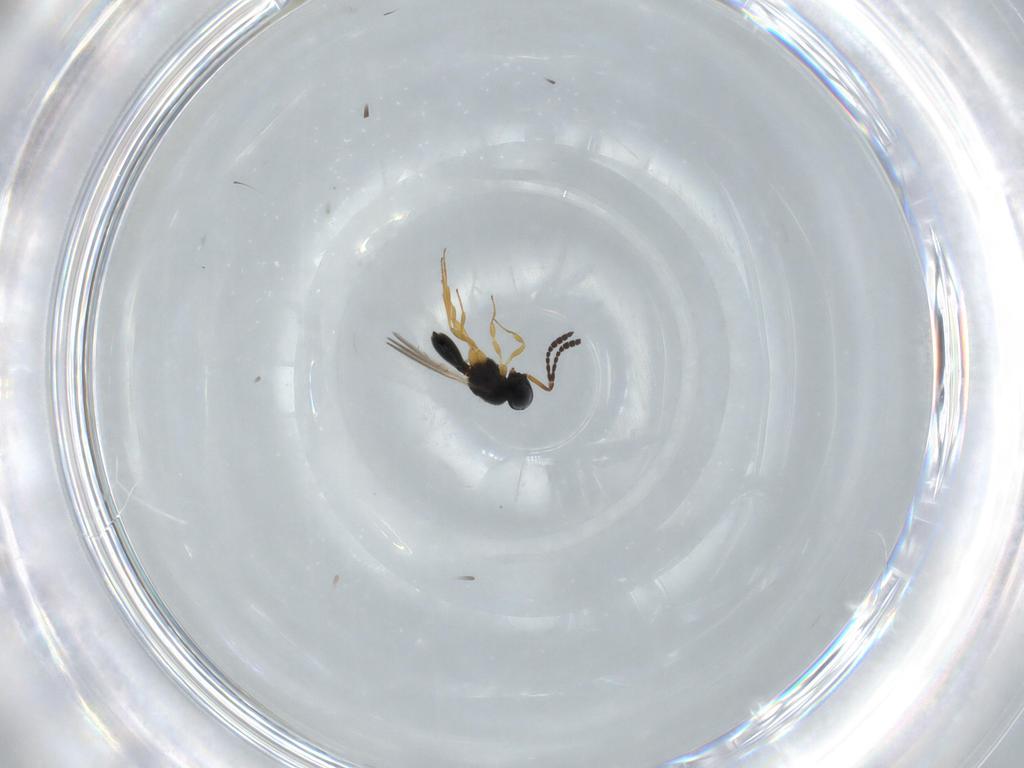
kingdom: Animalia
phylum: Arthropoda
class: Insecta
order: Hymenoptera
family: Scelionidae
